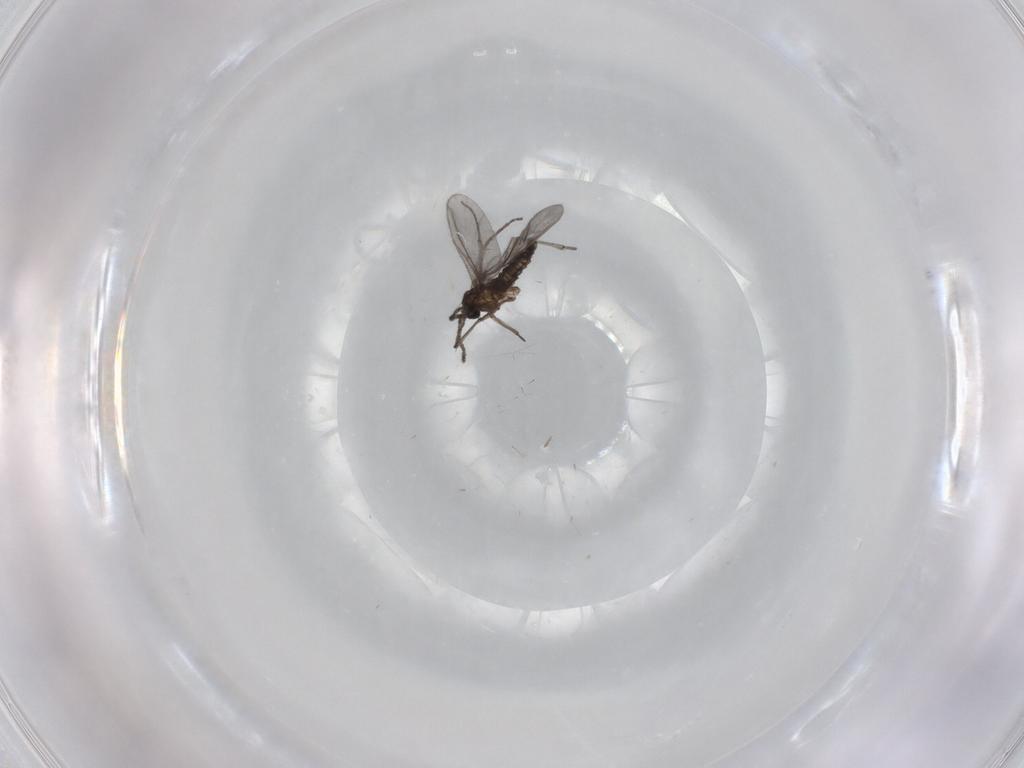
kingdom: Animalia
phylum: Arthropoda
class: Insecta
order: Diptera
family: Sciaridae
